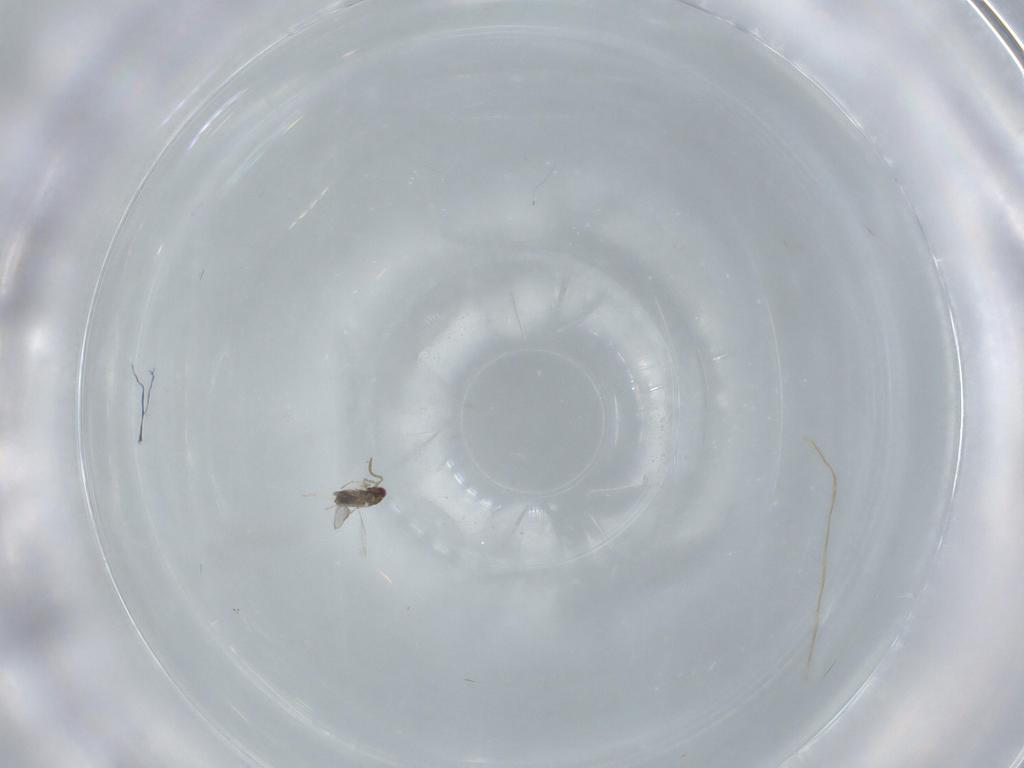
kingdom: Animalia
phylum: Arthropoda
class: Insecta
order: Hymenoptera
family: Aphelinidae
